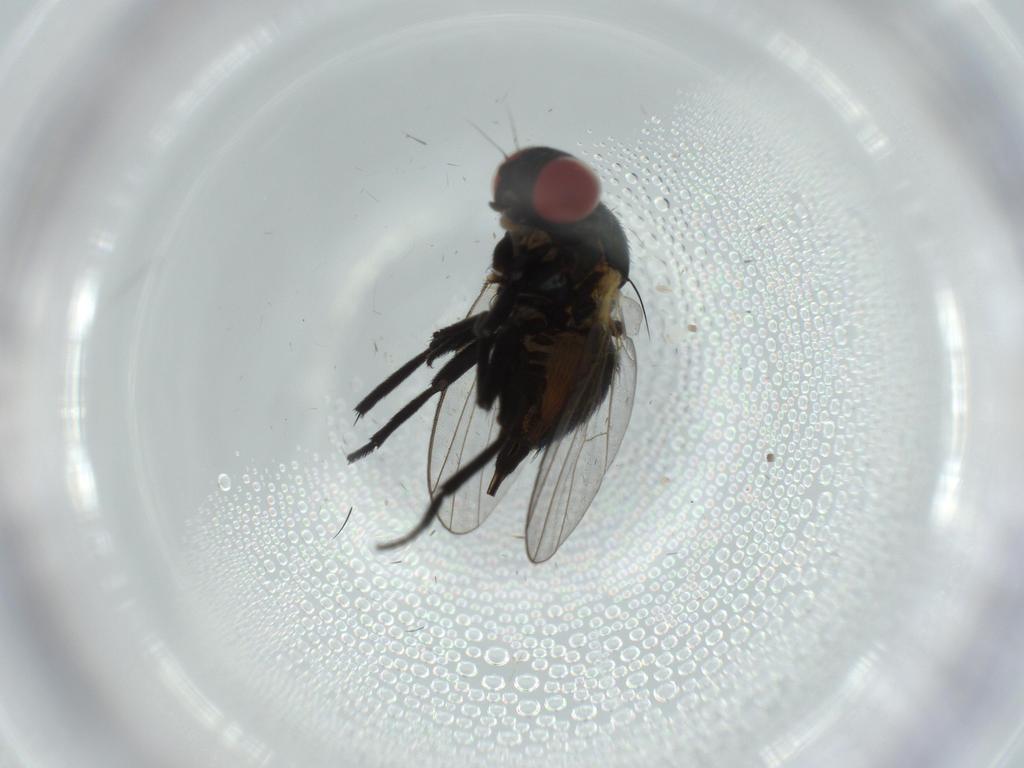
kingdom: Animalia
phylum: Arthropoda
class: Insecta
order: Diptera
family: Agromyzidae
